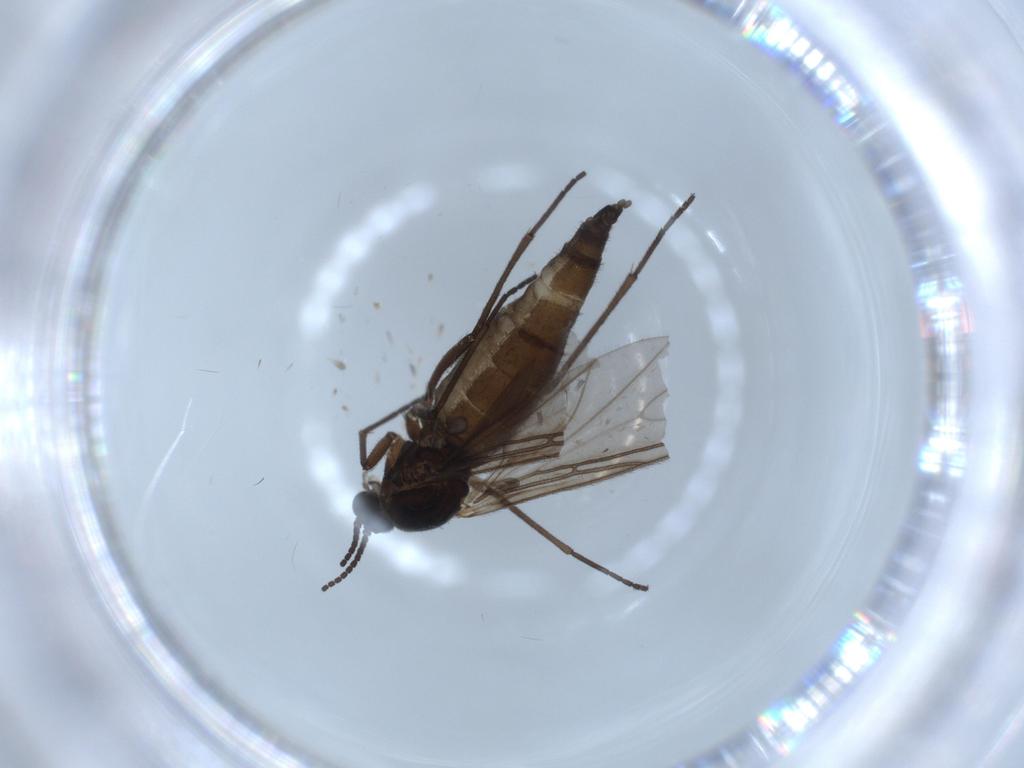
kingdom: Animalia
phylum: Arthropoda
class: Insecta
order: Diptera
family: Sciaridae
